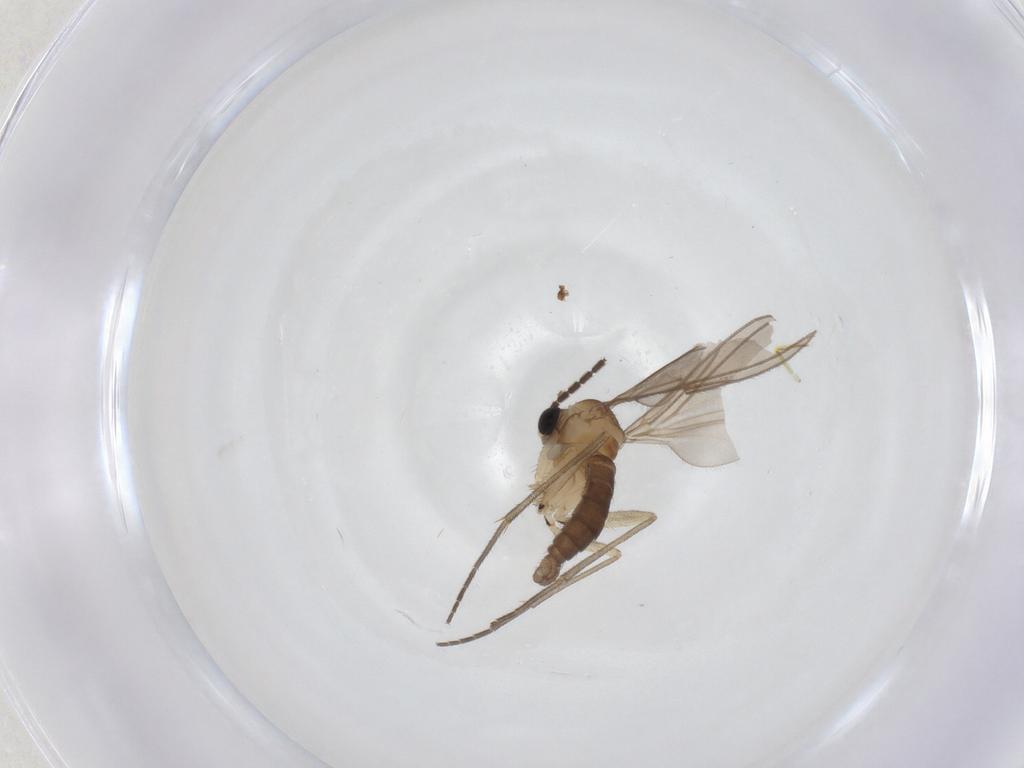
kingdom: Animalia
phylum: Arthropoda
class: Insecta
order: Diptera
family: Sciaridae
